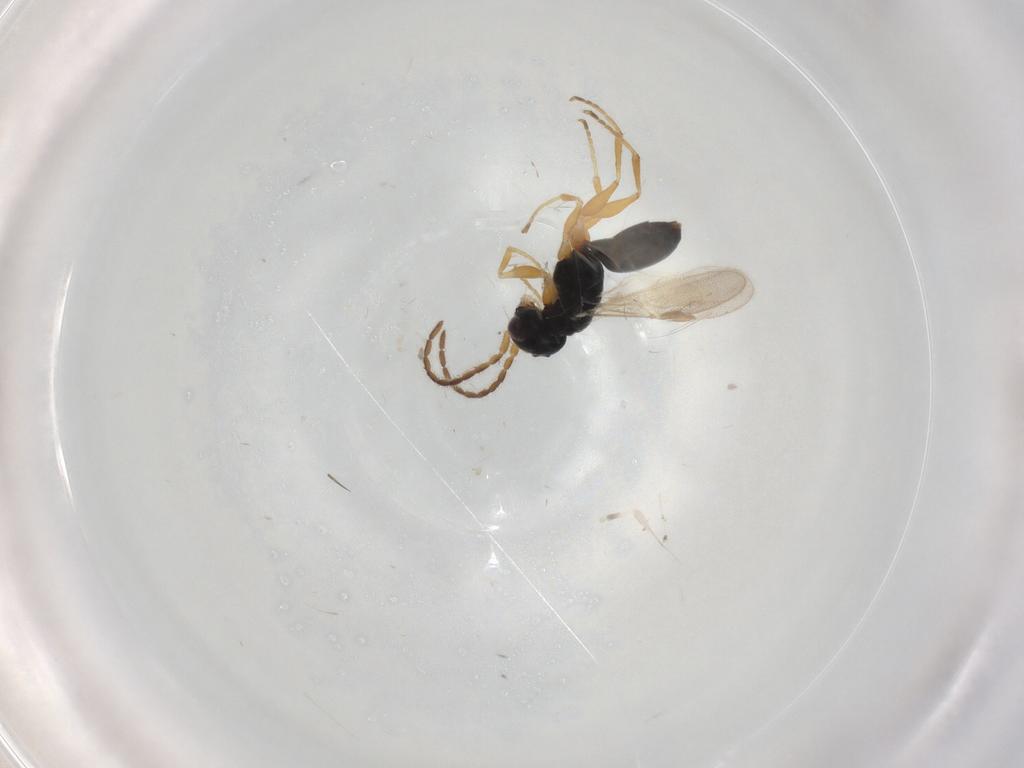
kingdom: Animalia
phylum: Arthropoda
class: Insecta
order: Hymenoptera
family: Dryinidae
